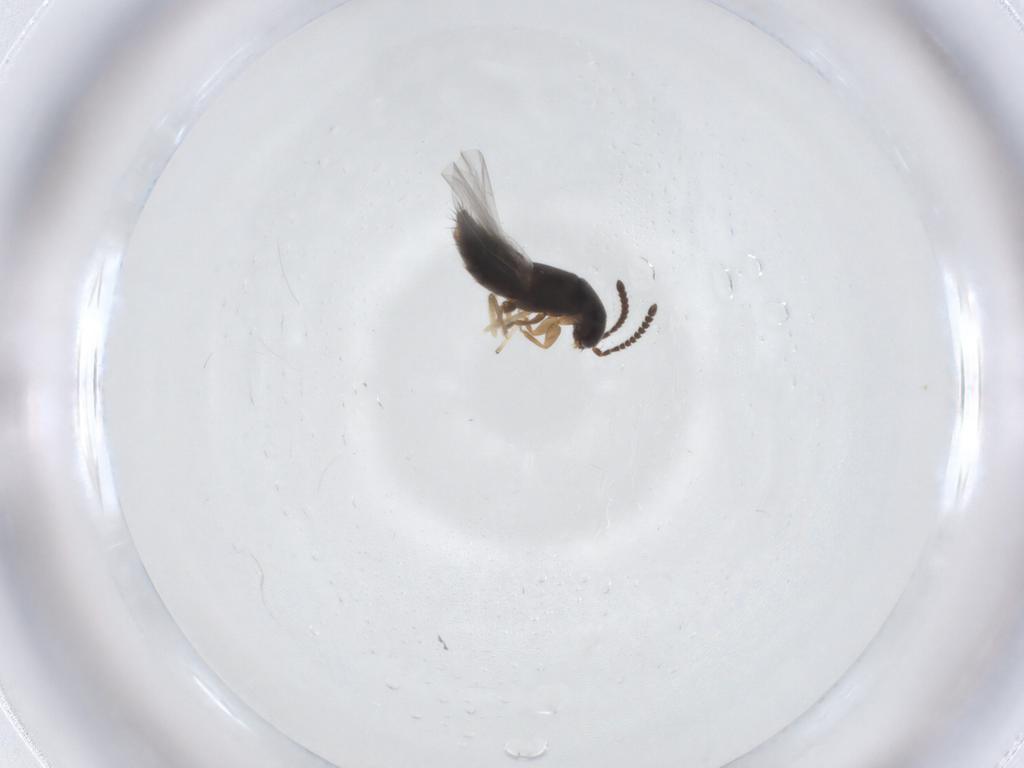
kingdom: Animalia
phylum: Arthropoda
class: Insecta
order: Coleoptera
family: Staphylinidae
